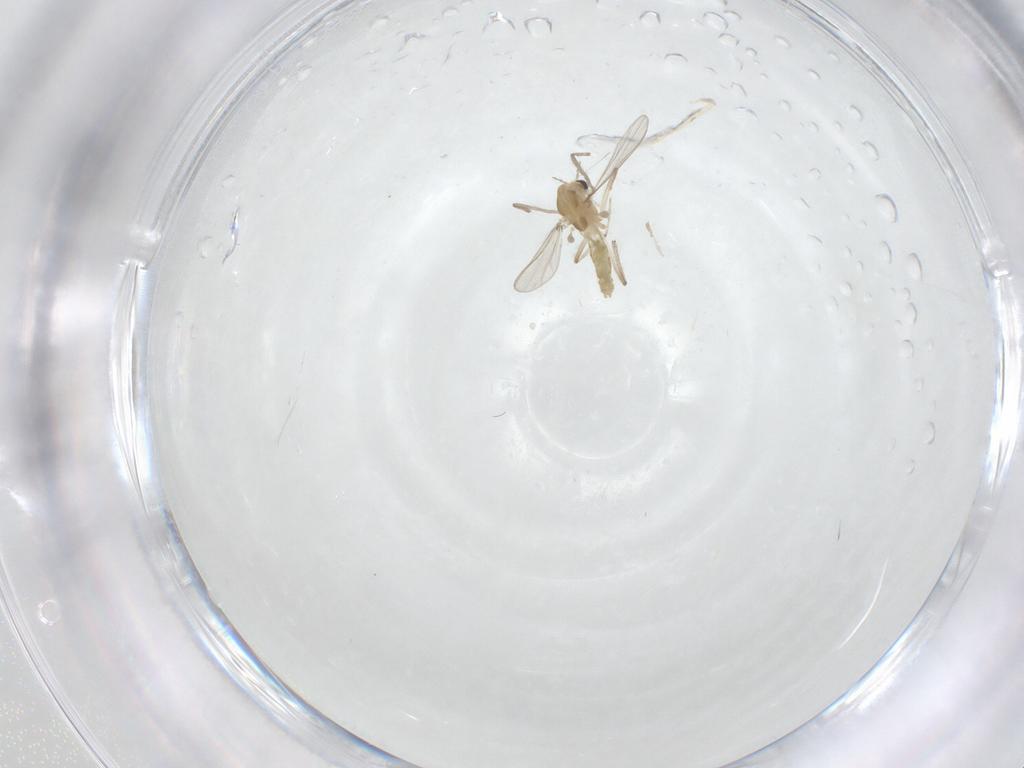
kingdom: Animalia
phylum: Arthropoda
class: Insecta
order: Diptera
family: Chironomidae
